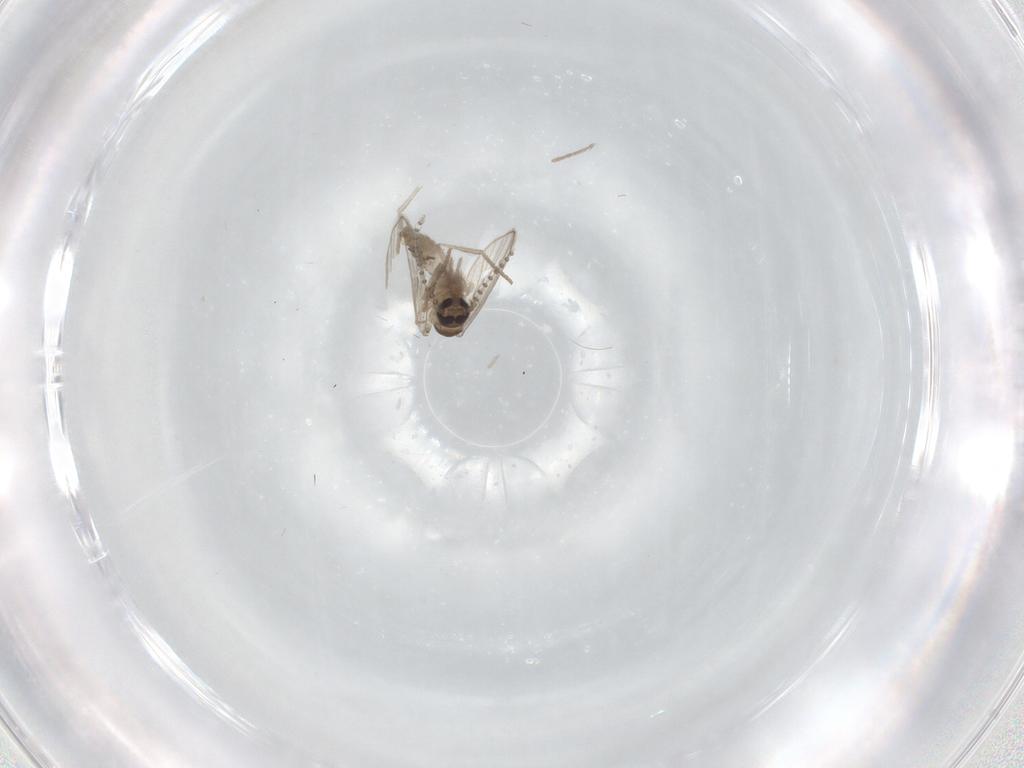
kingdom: Animalia
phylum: Arthropoda
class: Insecta
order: Diptera
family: Psychodidae
